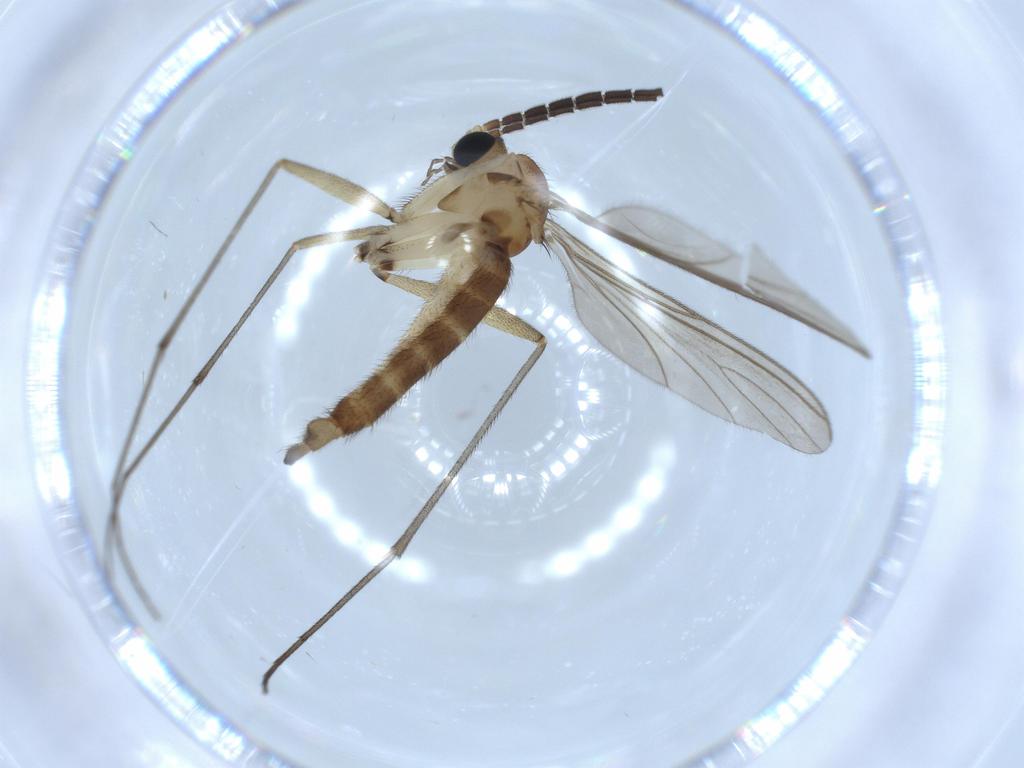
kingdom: Animalia
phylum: Arthropoda
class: Insecta
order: Diptera
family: Sciaridae
